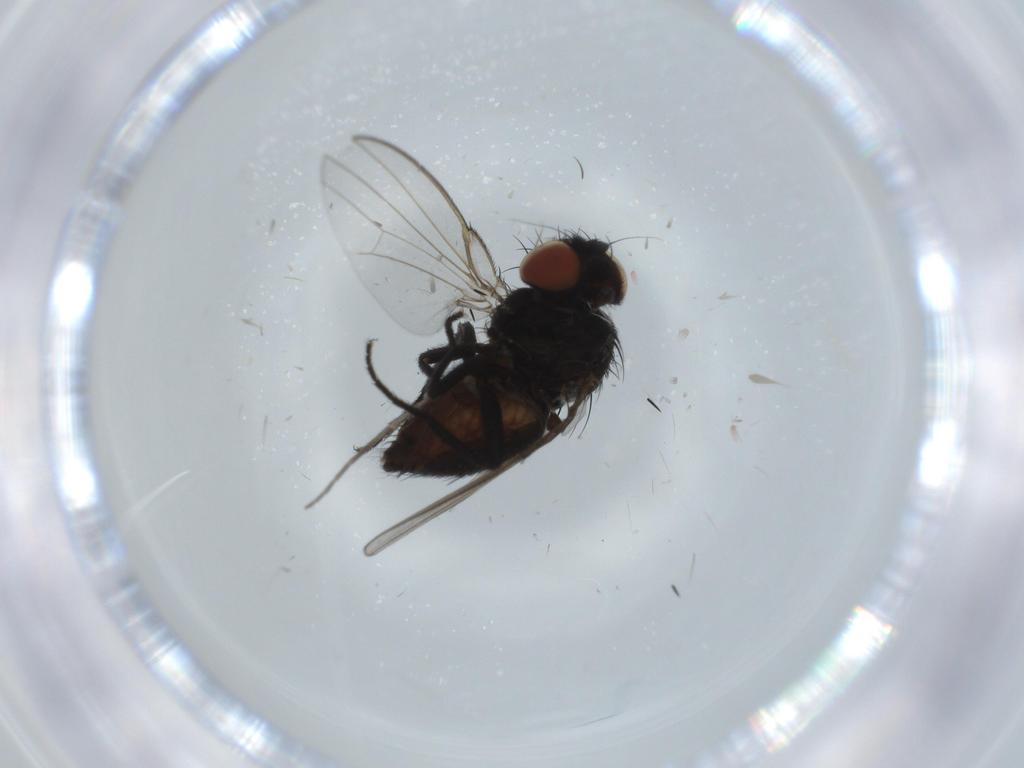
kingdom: Animalia
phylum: Arthropoda
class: Insecta
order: Diptera
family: Milichiidae
